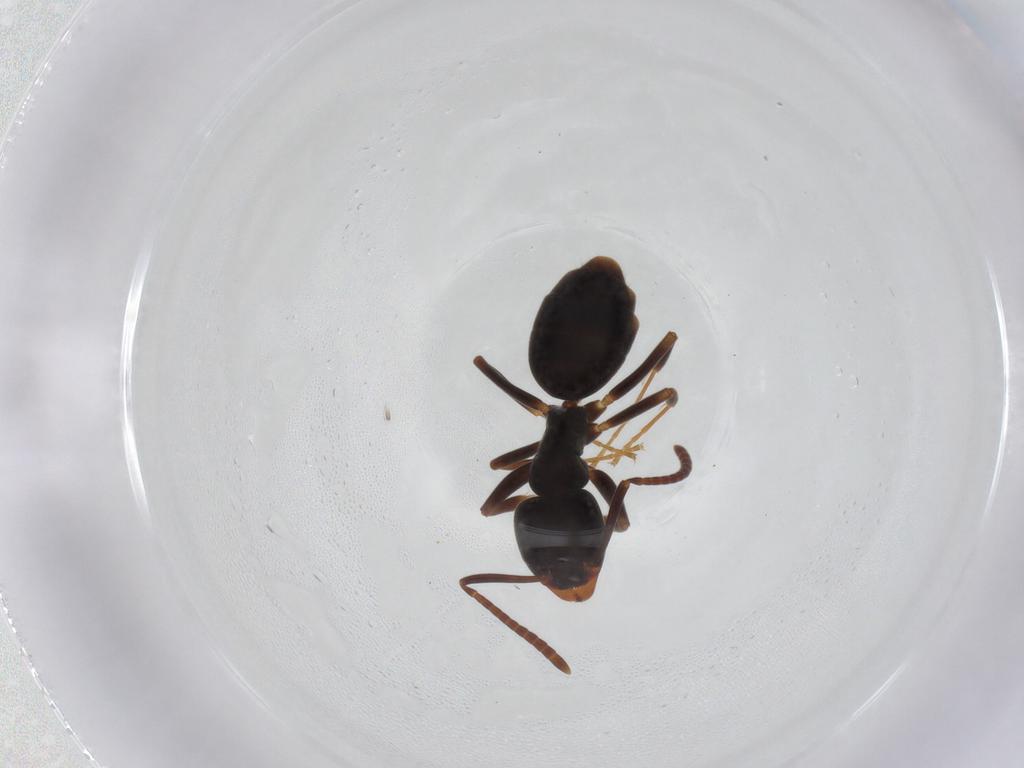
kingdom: Animalia
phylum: Arthropoda
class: Insecta
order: Hymenoptera
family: Formicidae
